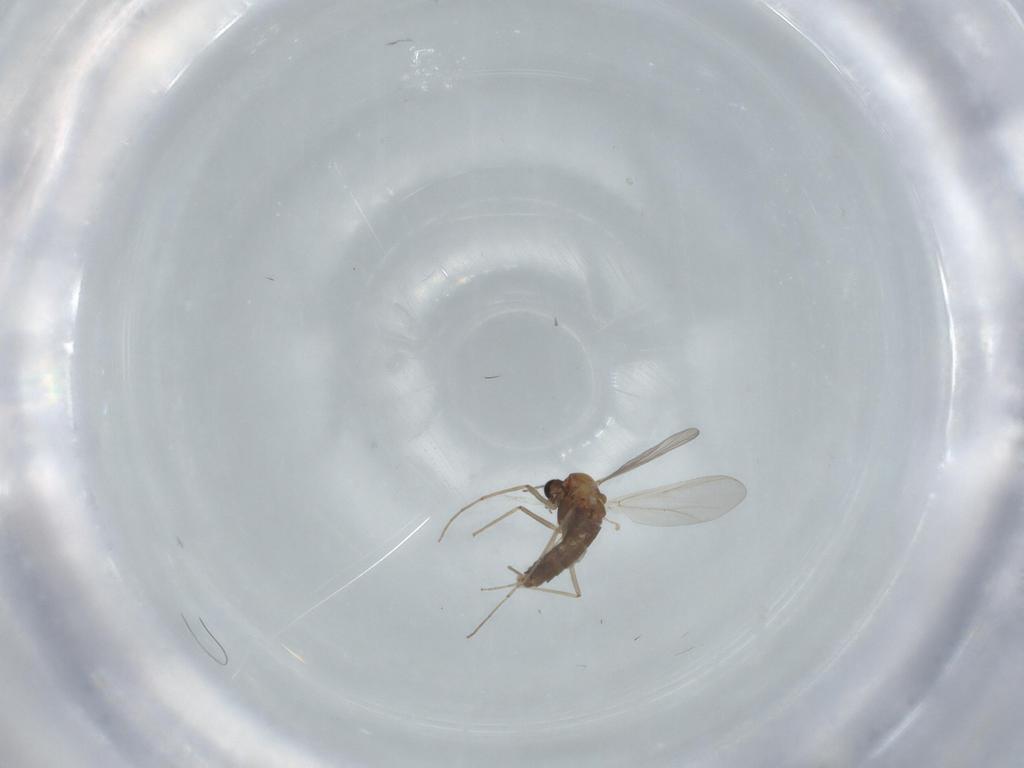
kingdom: Animalia
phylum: Arthropoda
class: Insecta
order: Diptera
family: Chironomidae
